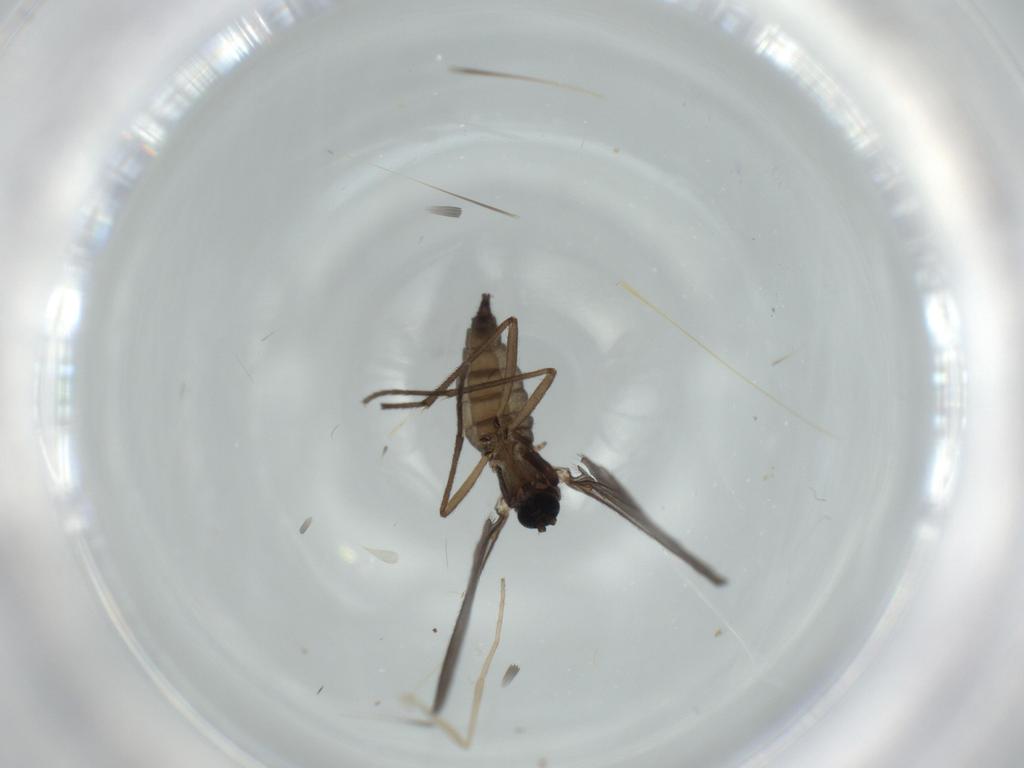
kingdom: Animalia
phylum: Arthropoda
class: Insecta
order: Diptera
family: Sciaridae
